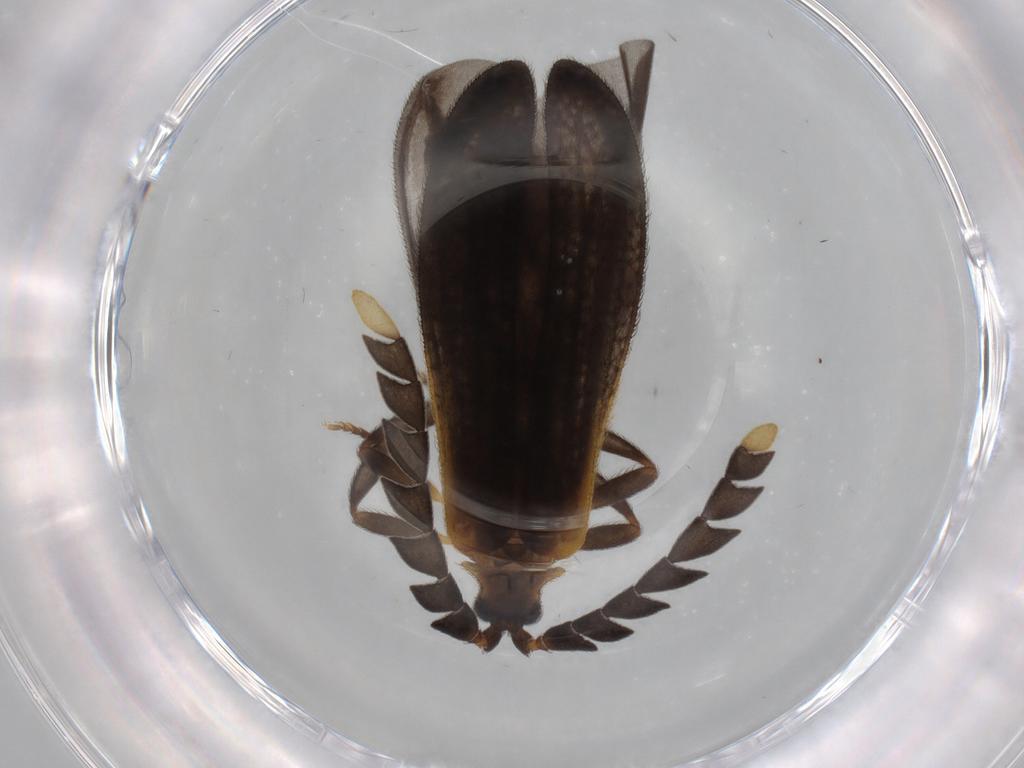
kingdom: Animalia
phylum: Arthropoda
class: Insecta
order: Coleoptera
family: Lycidae
